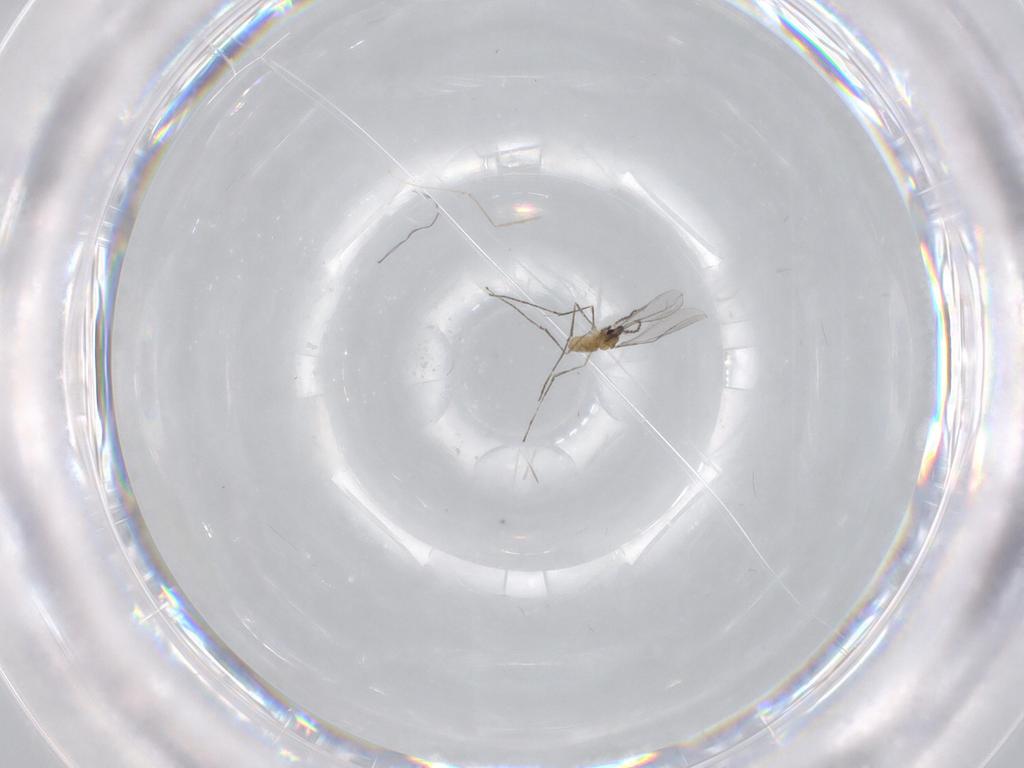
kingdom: Animalia
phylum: Arthropoda
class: Insecta
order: Diptera
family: Cecidomyiidae
